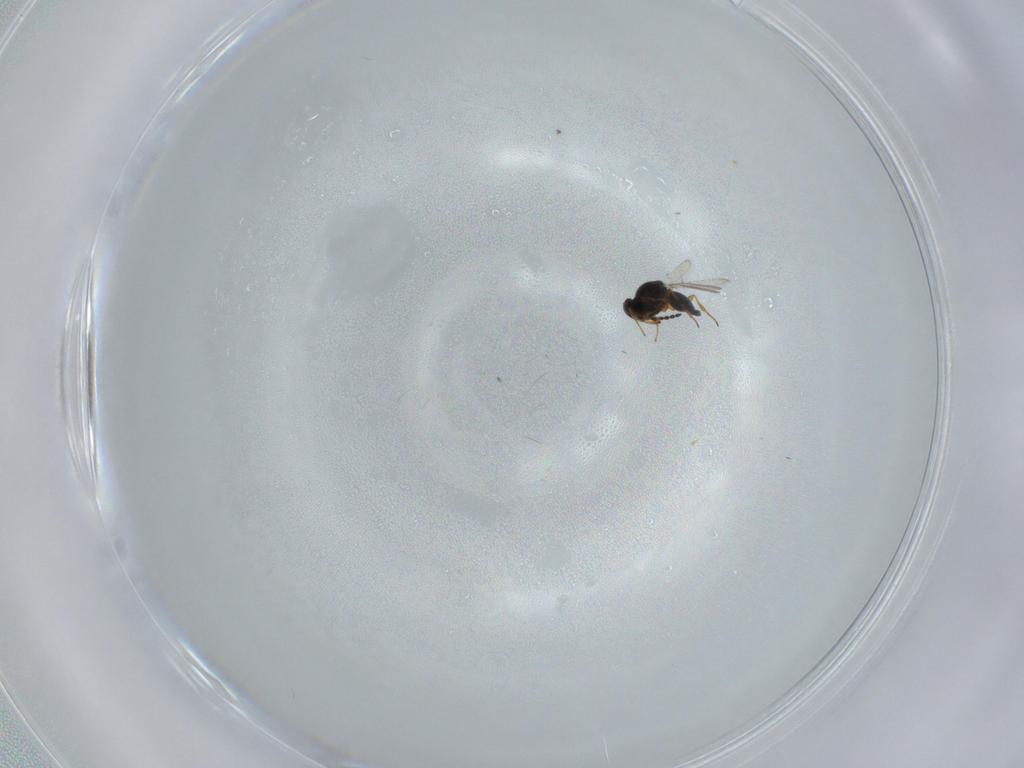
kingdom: Animalia
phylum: Arthropoda
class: Insecta
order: Hymenoptera
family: Platygastridae
